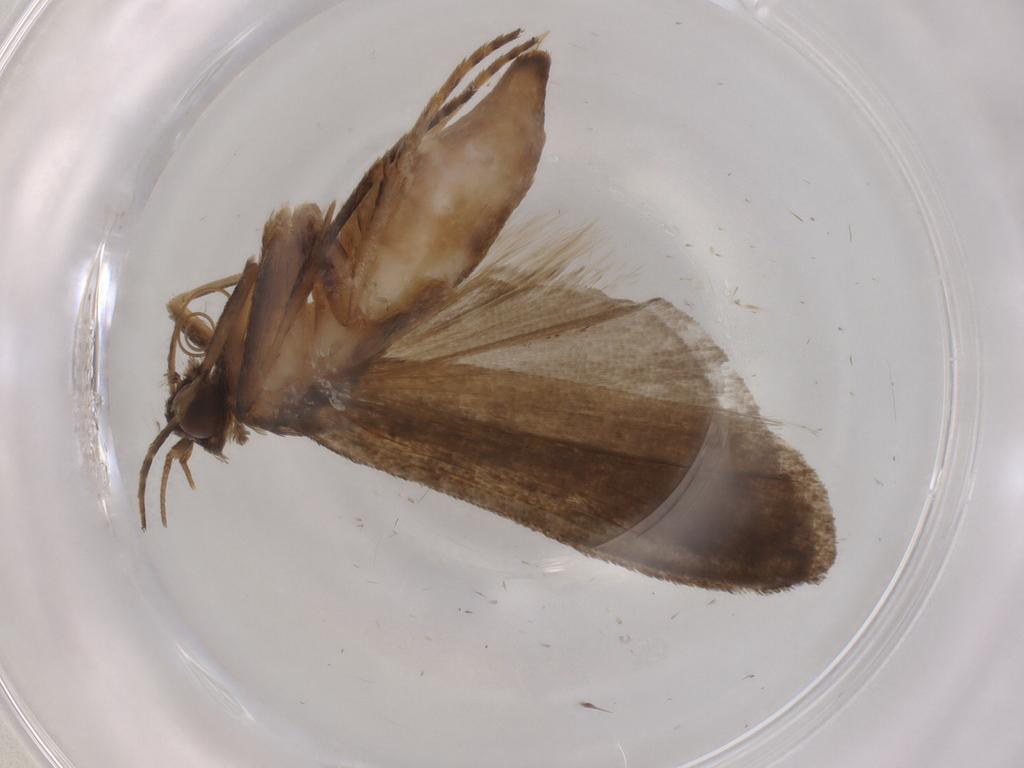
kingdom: Animalia
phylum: Arthropoda
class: Insecta
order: Lepidoptera
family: Noctuidae
